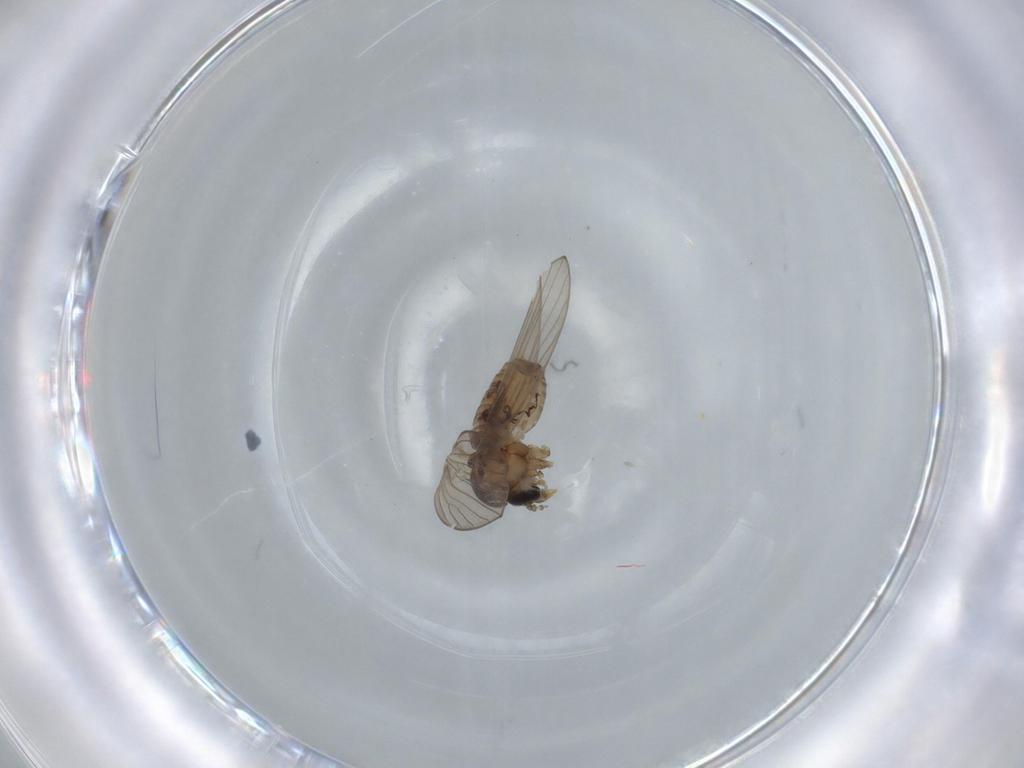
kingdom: Animalia
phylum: Arthropoda
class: Insecta
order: Diptera
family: Psychodidae
